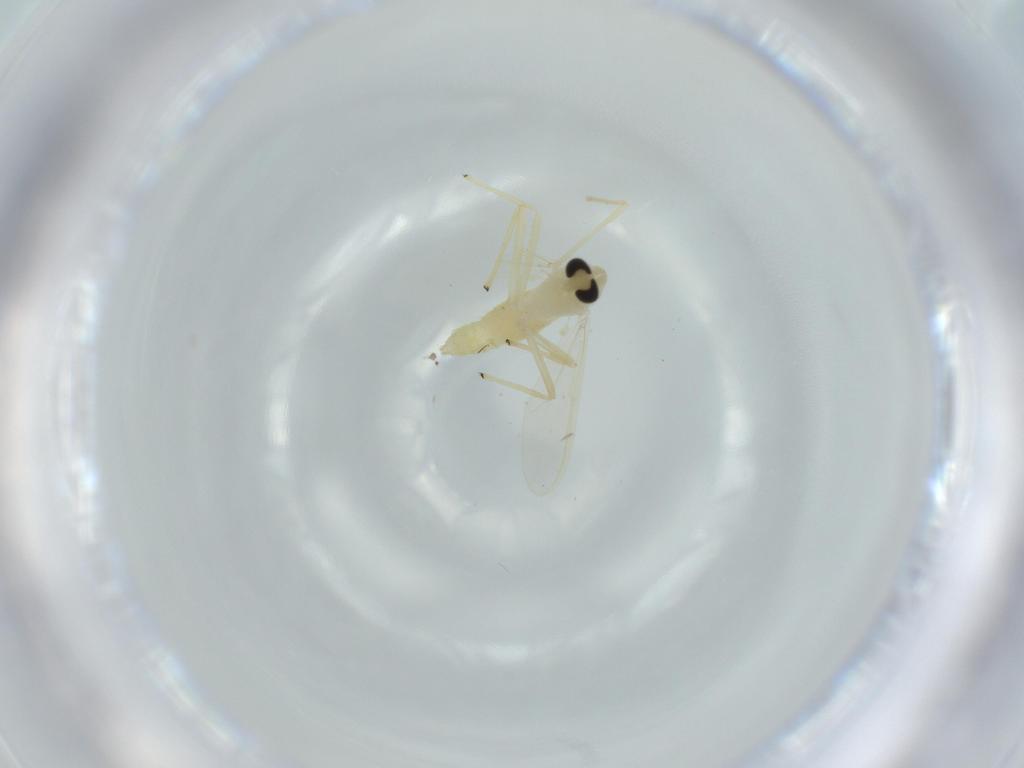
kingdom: Animalia
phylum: Arthropoda
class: Insecta
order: Diptera
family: Chironomidae
